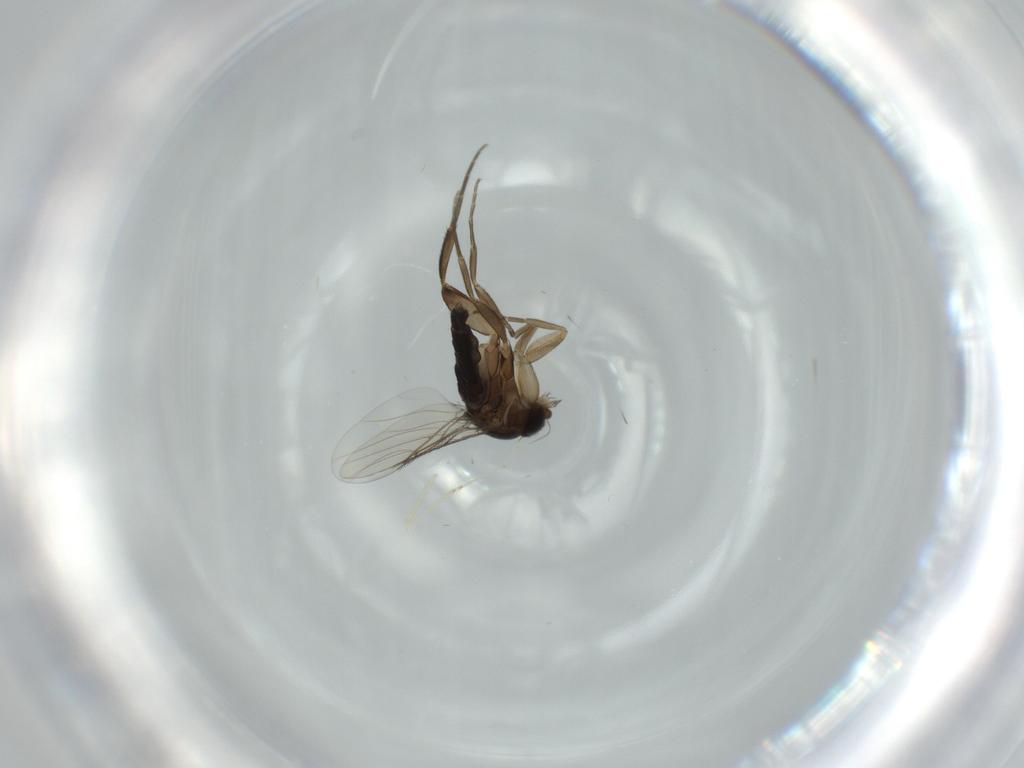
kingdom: Animalia
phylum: Arthropoda
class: Insecta
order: Diptera
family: Phoridae
